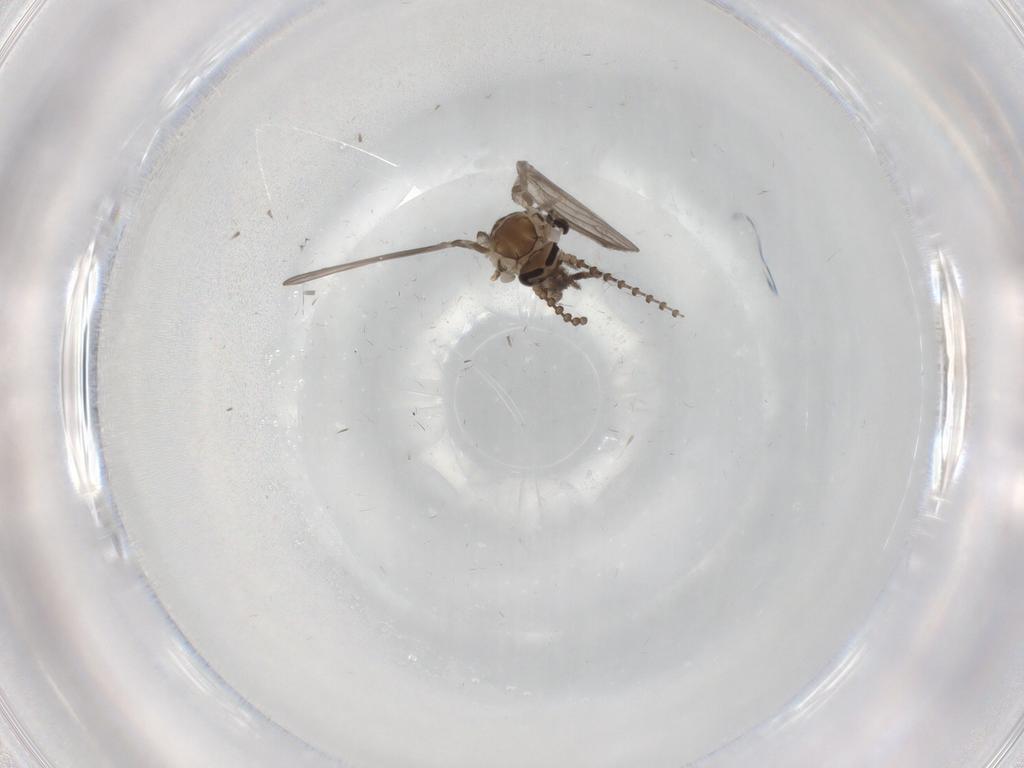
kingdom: Animalia
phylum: Arthropoda
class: Insecta
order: Diptera
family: Psychodidae
